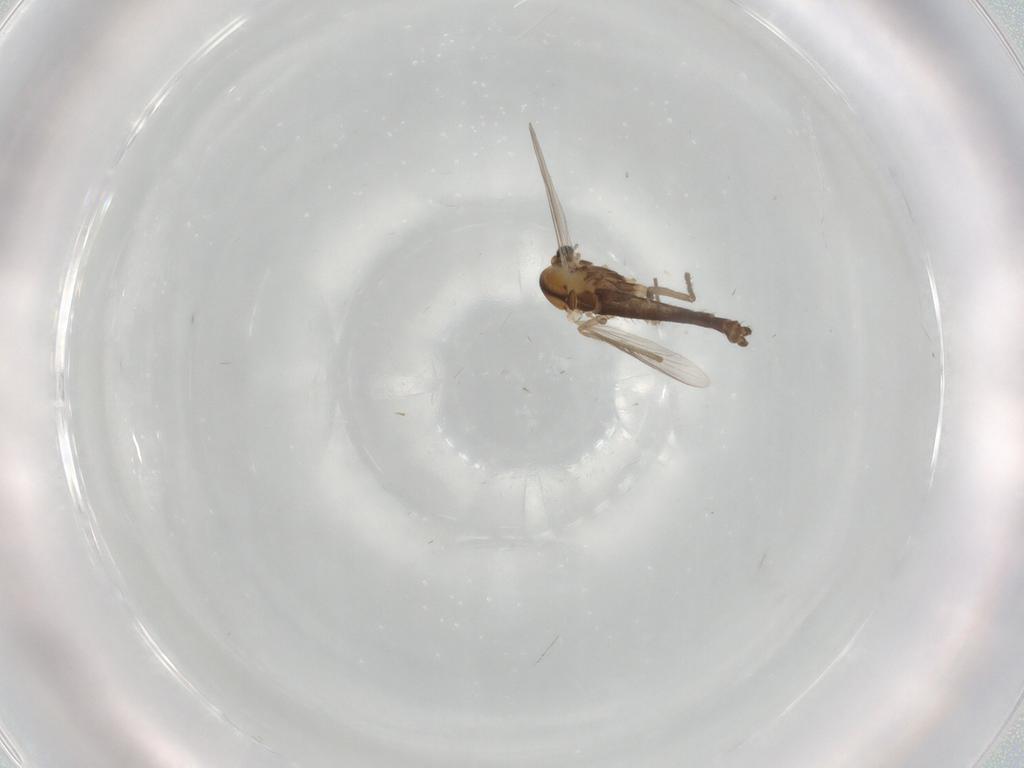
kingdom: Animalia
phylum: Arthropoda
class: Insecta
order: Diptera
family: Chironomidae
